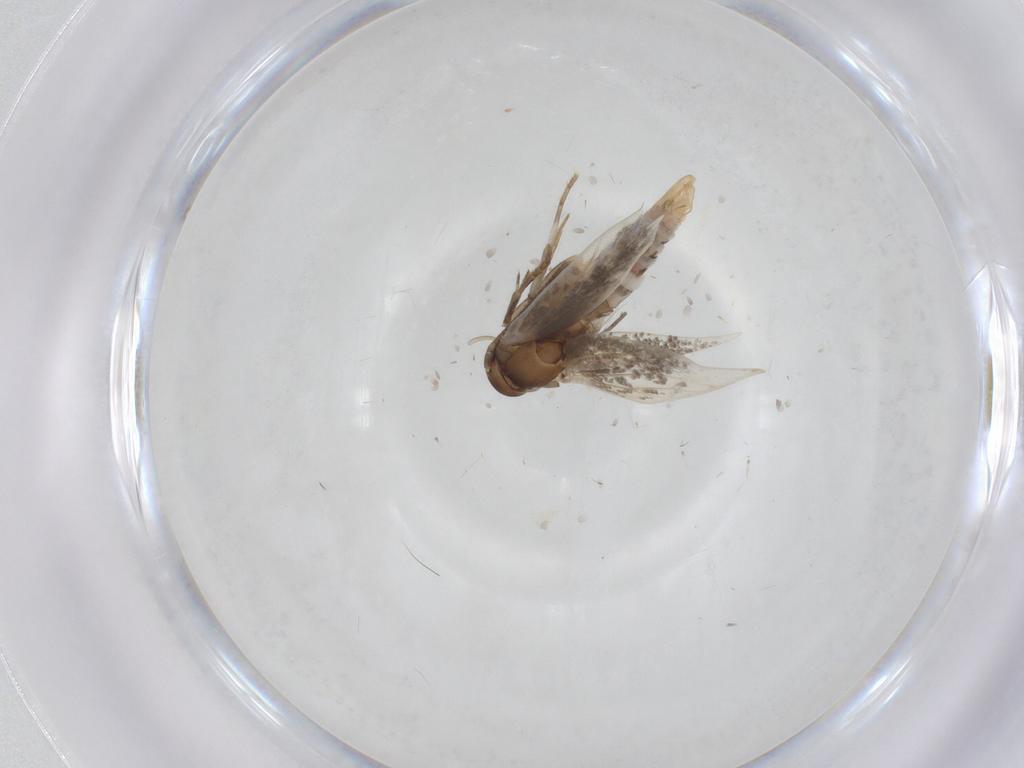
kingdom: Animalia
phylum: Arthropoda
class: Insecta
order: Lepidoptera
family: Elachistidae
